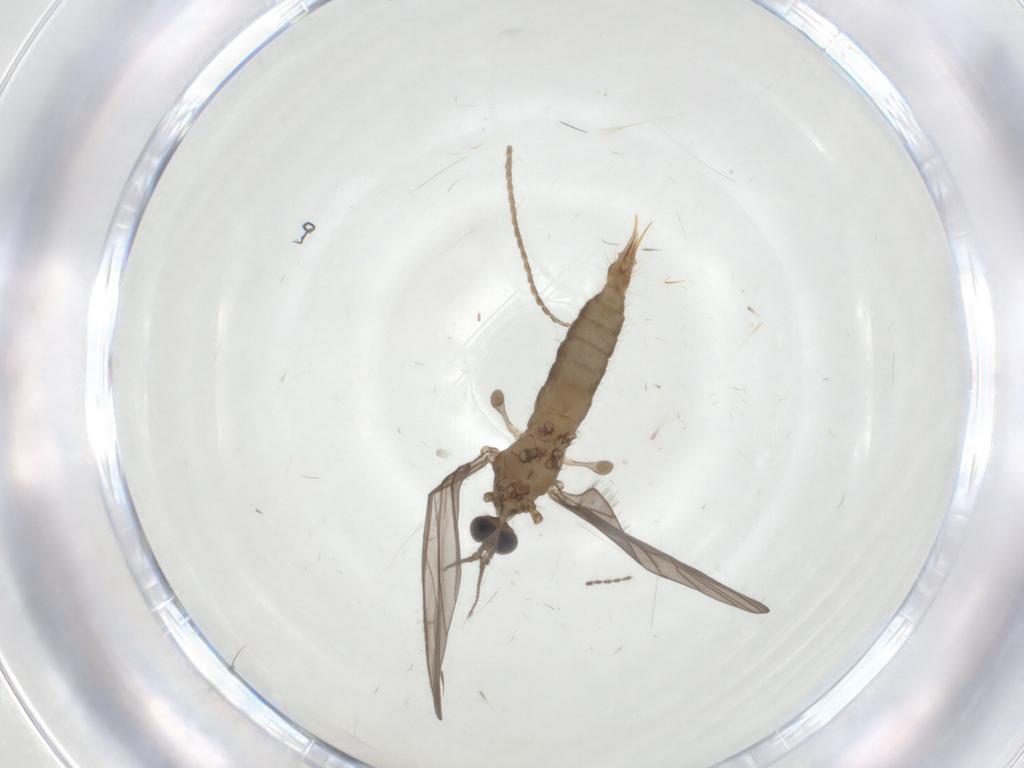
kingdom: Animalia
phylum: Arthropoda
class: Insecta
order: Diptera
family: Limoniidae
